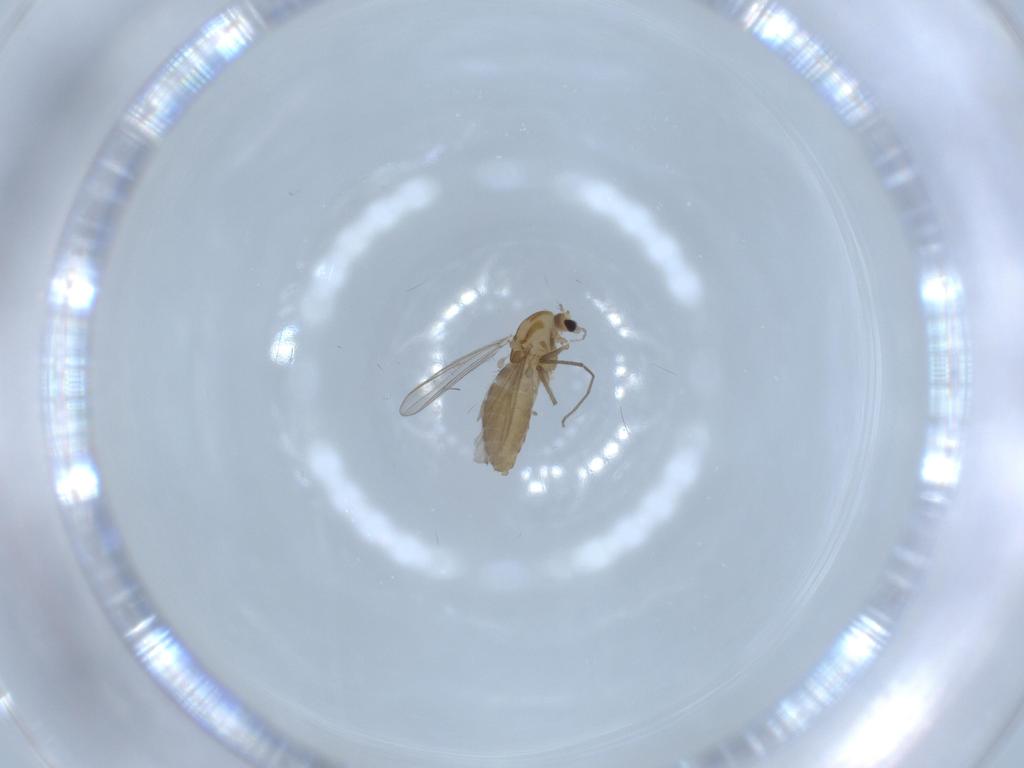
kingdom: Animalia
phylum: Arthropoda
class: Insecta
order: Diptera
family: Chironomidae
